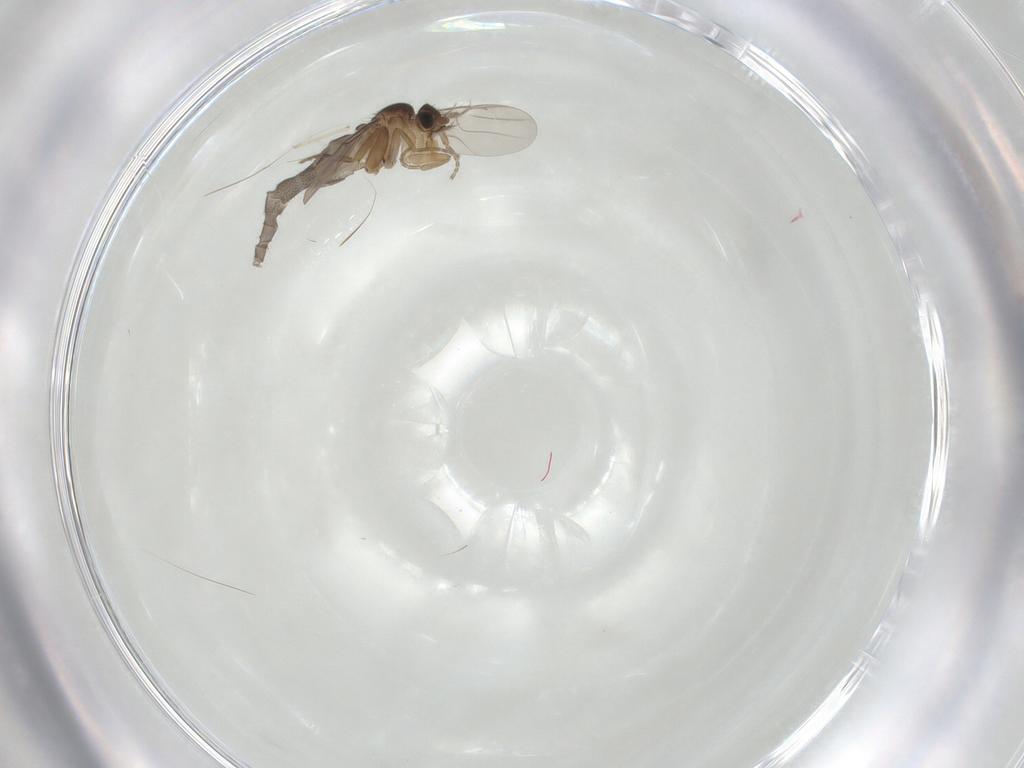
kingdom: Animalia
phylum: Arthropoda
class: Insecta
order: Diptera
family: Phoridae
